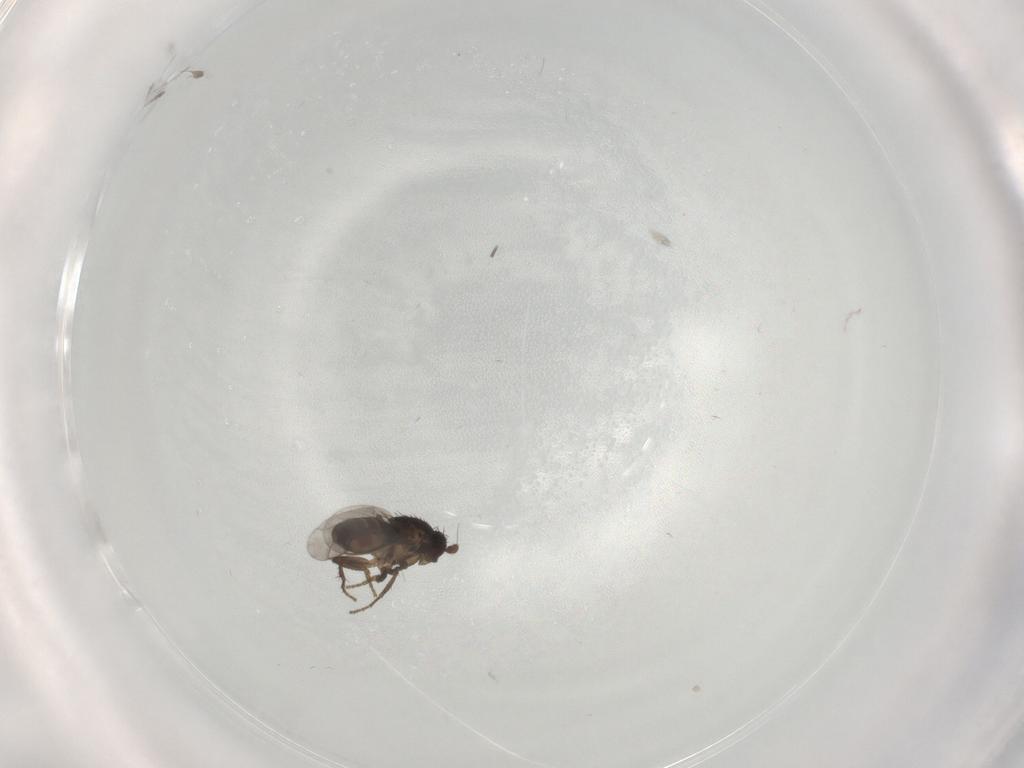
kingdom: Animalia
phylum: Arthropoda
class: Insecta
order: Diptera
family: Sphaeroceridae
